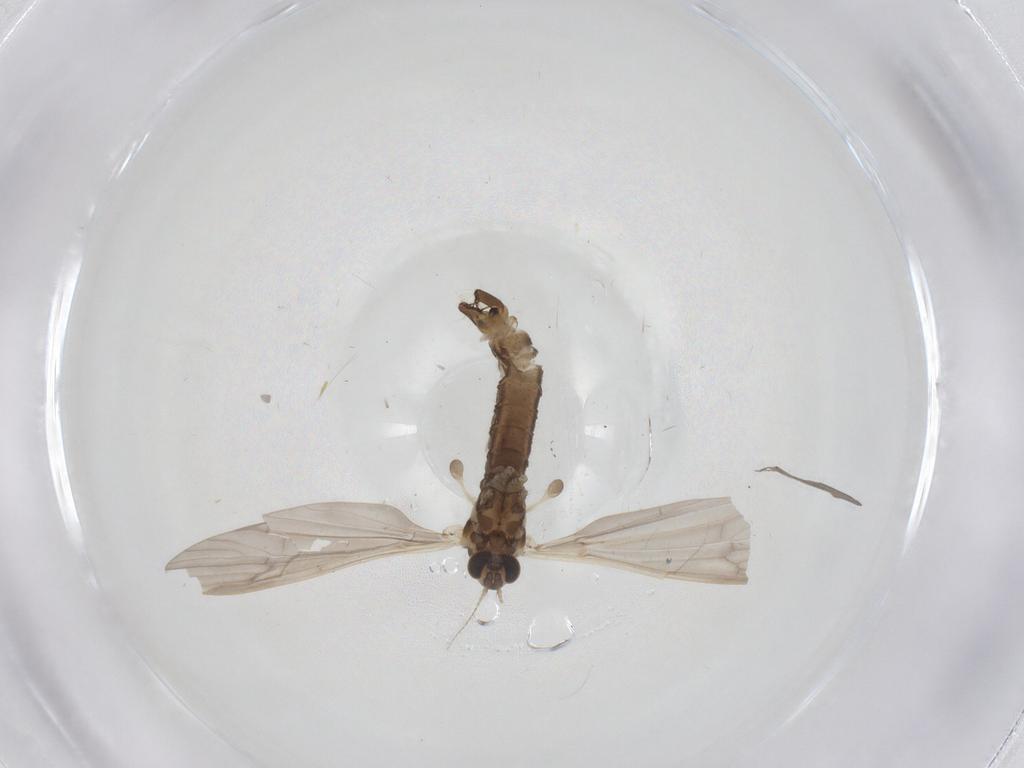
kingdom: Animalia
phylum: Arthropoda
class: Insecta
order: Diptera
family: Limoniidae
